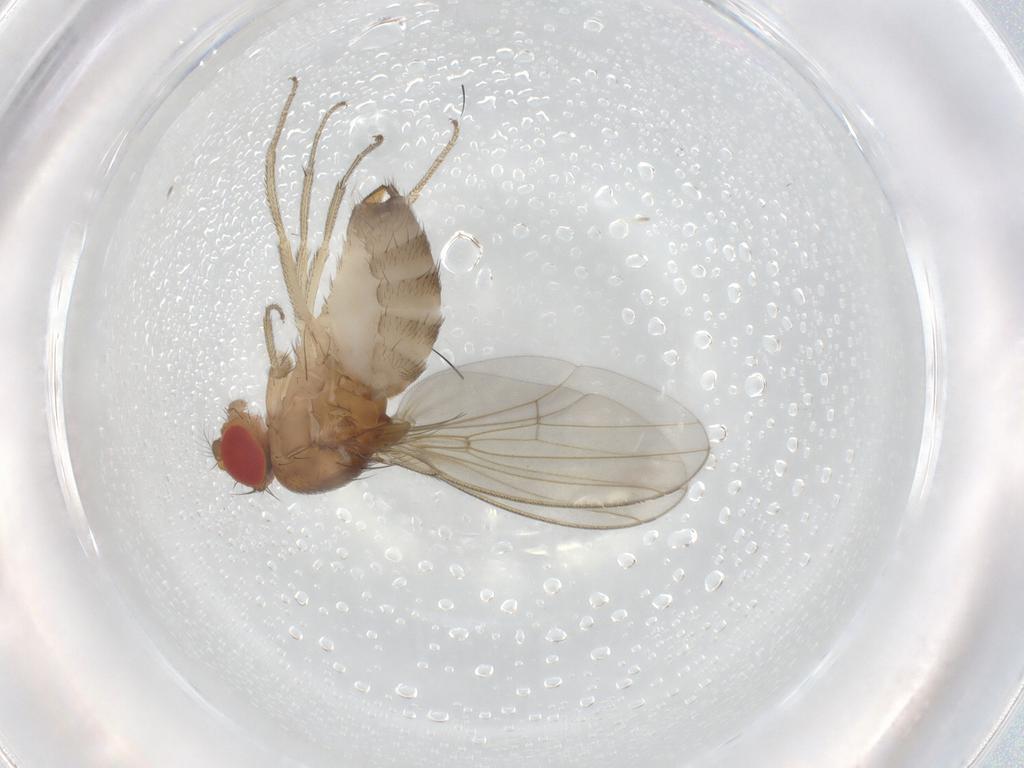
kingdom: Animalia
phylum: Arthropoda
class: Insecta
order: Diptera
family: Drosophilidae
